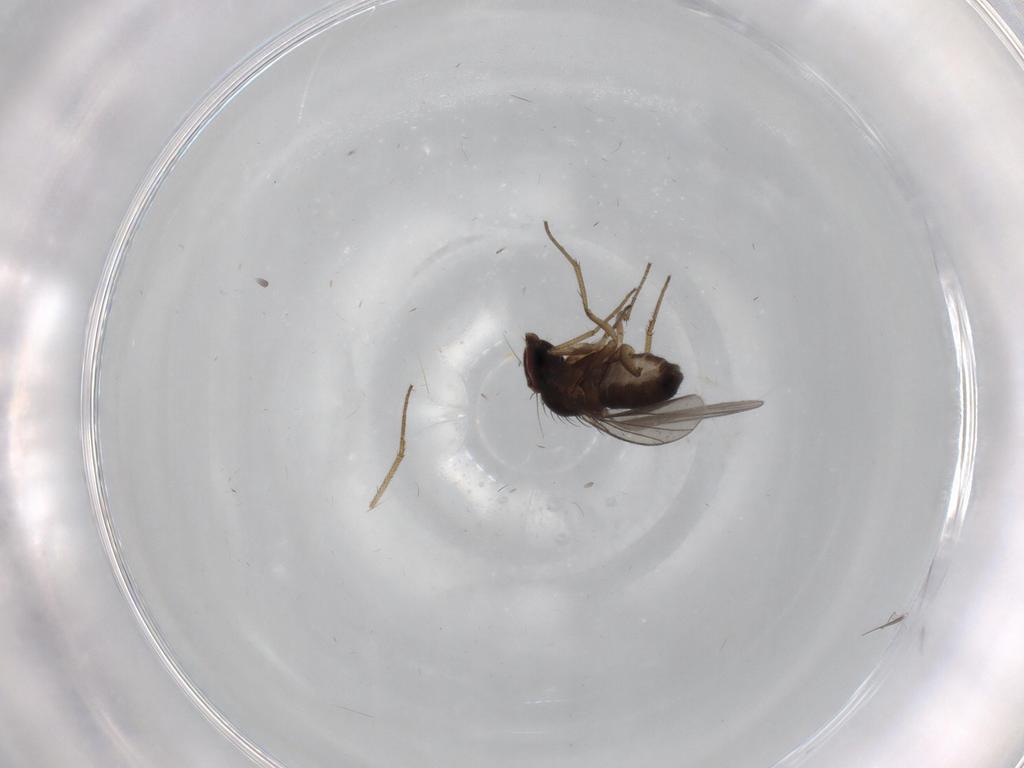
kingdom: Animalia
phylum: Arthropoda
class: Insecta
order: Diptera
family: Dolichopodidae
